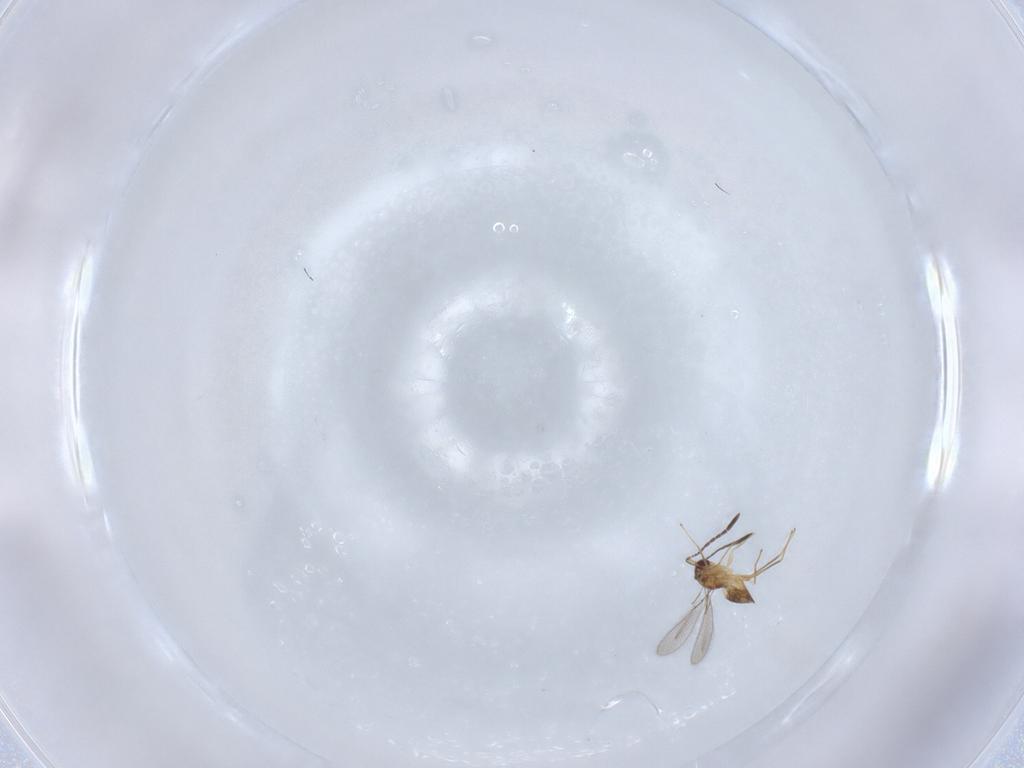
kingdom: Animalia
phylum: Arthropoda
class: Insecta
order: Hymenoptera
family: Mymaridae
